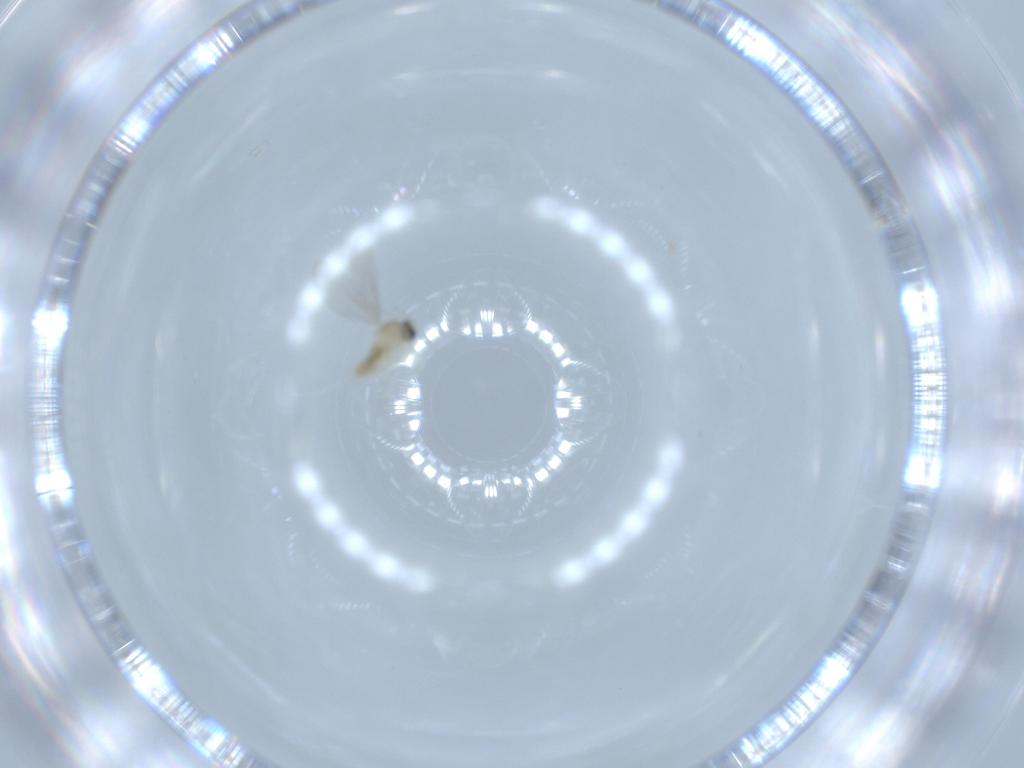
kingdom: Animalia
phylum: Arthropoda
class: Insecta
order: Diptera
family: Cecidomyiidae
